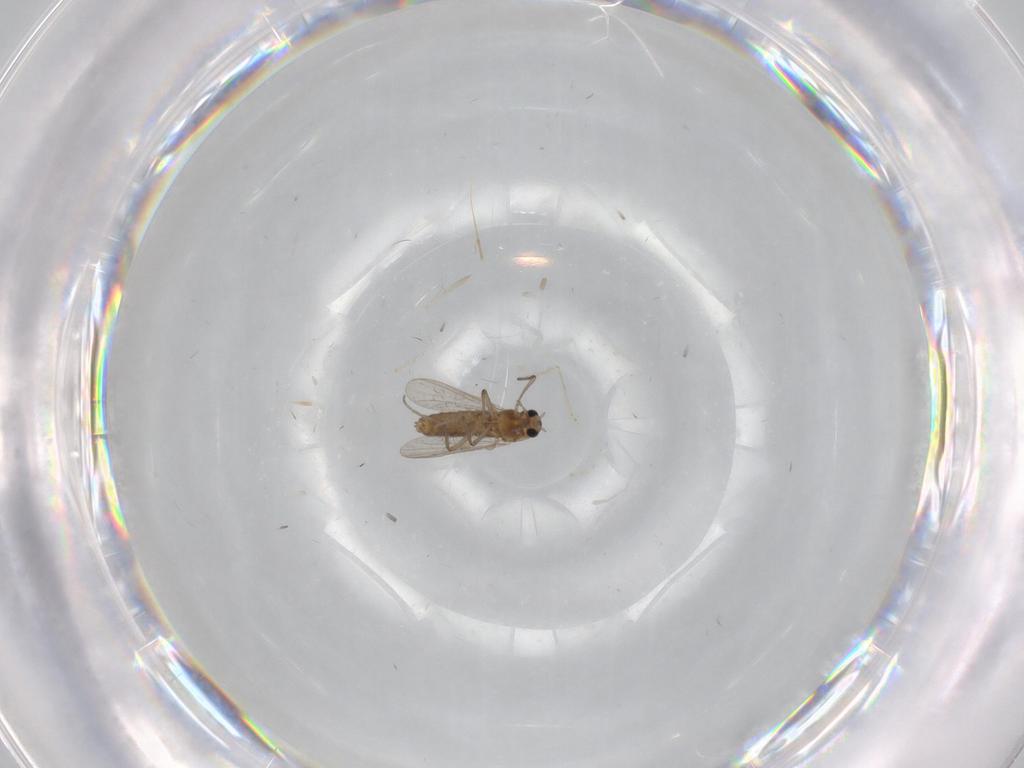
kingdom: Animalia
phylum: Arthropoda
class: Insecta
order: Diptera
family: Chironomidae
